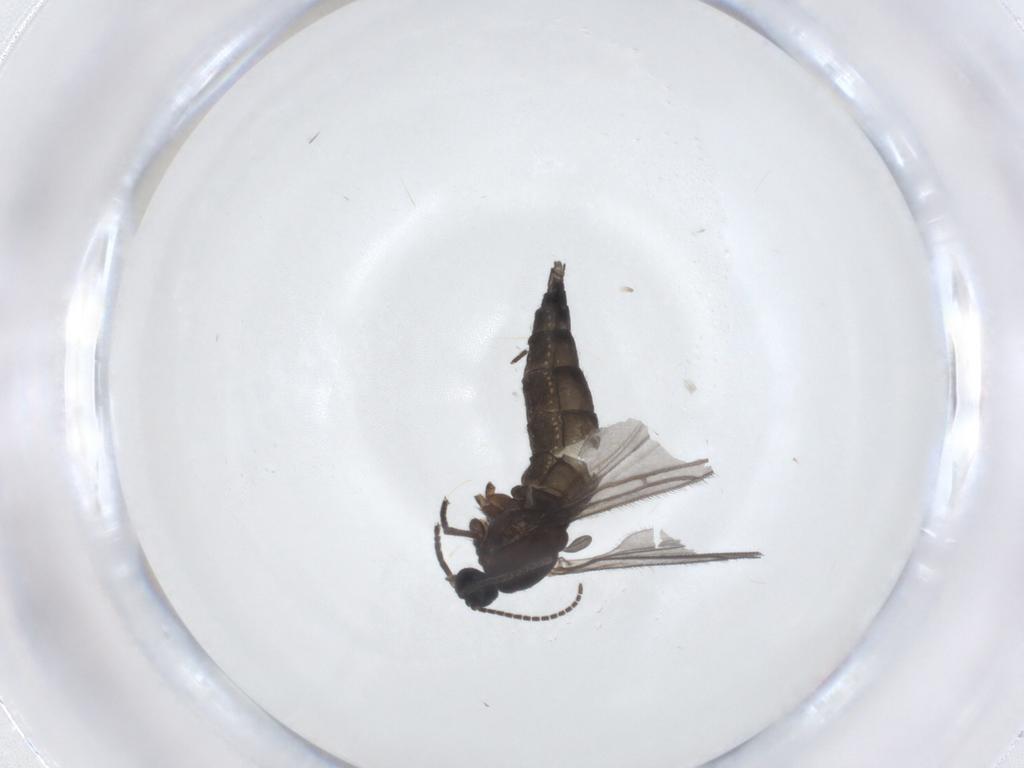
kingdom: Animalia
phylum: Arthropoda
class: Insecta
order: Diptera
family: Sciaridae
